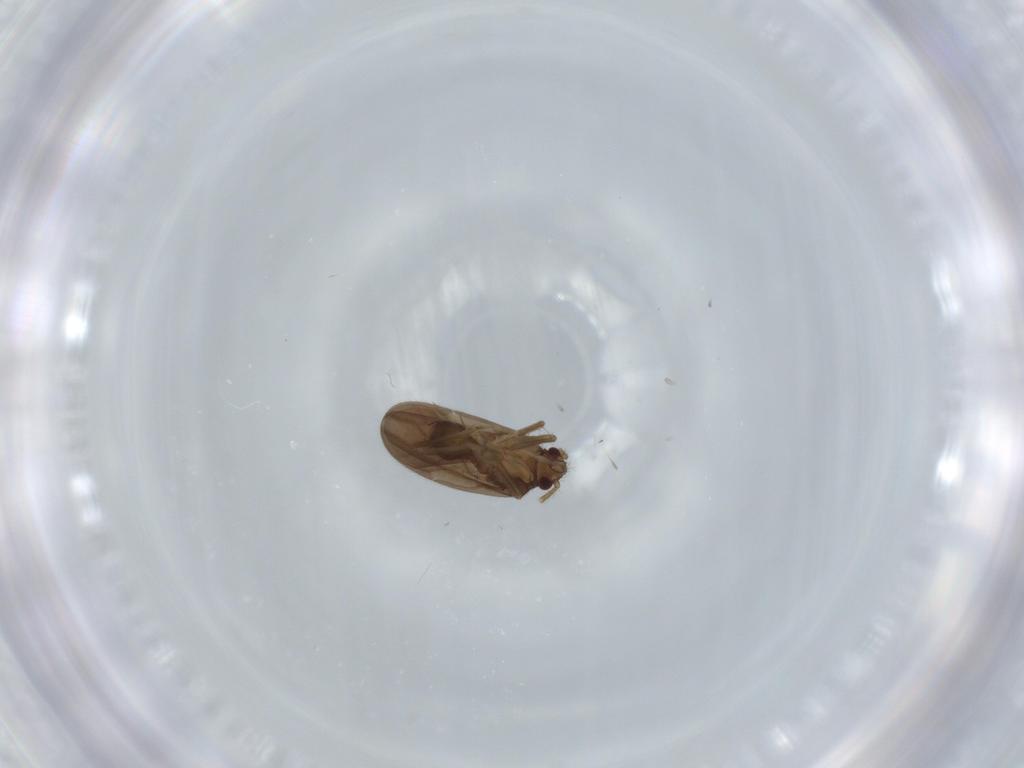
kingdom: Animalia
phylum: Arthropoda
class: Insecta
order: Hemiptera
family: Ceratocombidae
